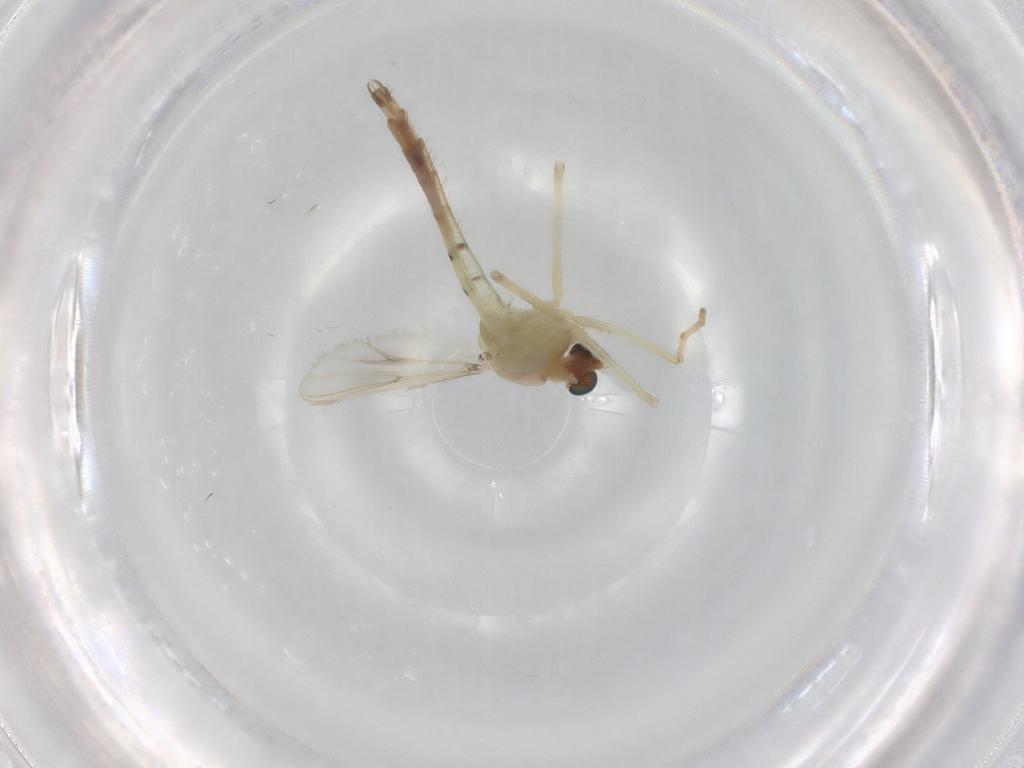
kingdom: Animalia
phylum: Arthropoda
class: Insecta
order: Diptera
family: Chironomidae
